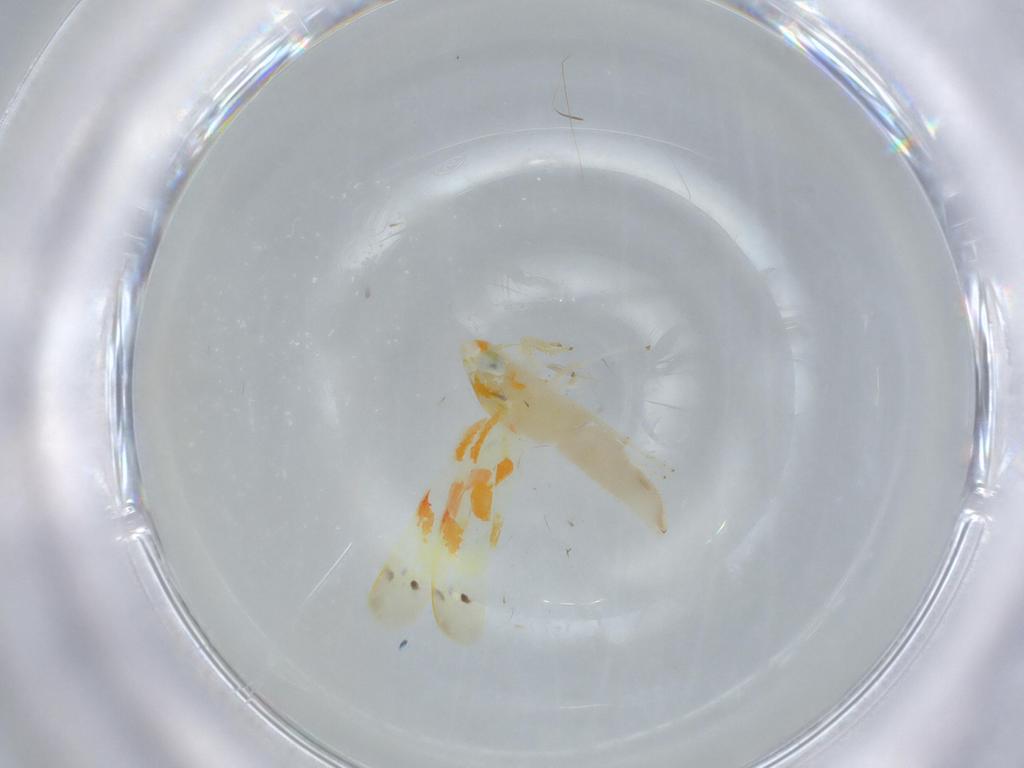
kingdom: Animalia
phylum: Arthropoda
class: Insecta
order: Hemiptera
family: Cicadellidae
